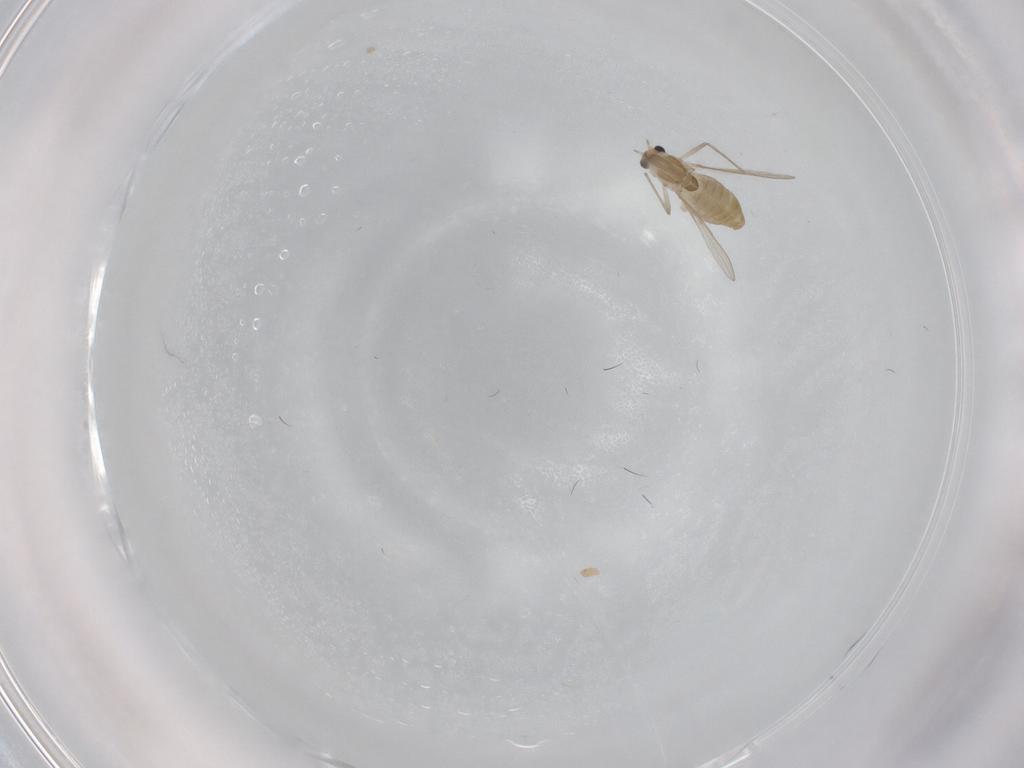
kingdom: Animalia
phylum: Arthropoda
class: Insecta
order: Diptera
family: Chironomidae
